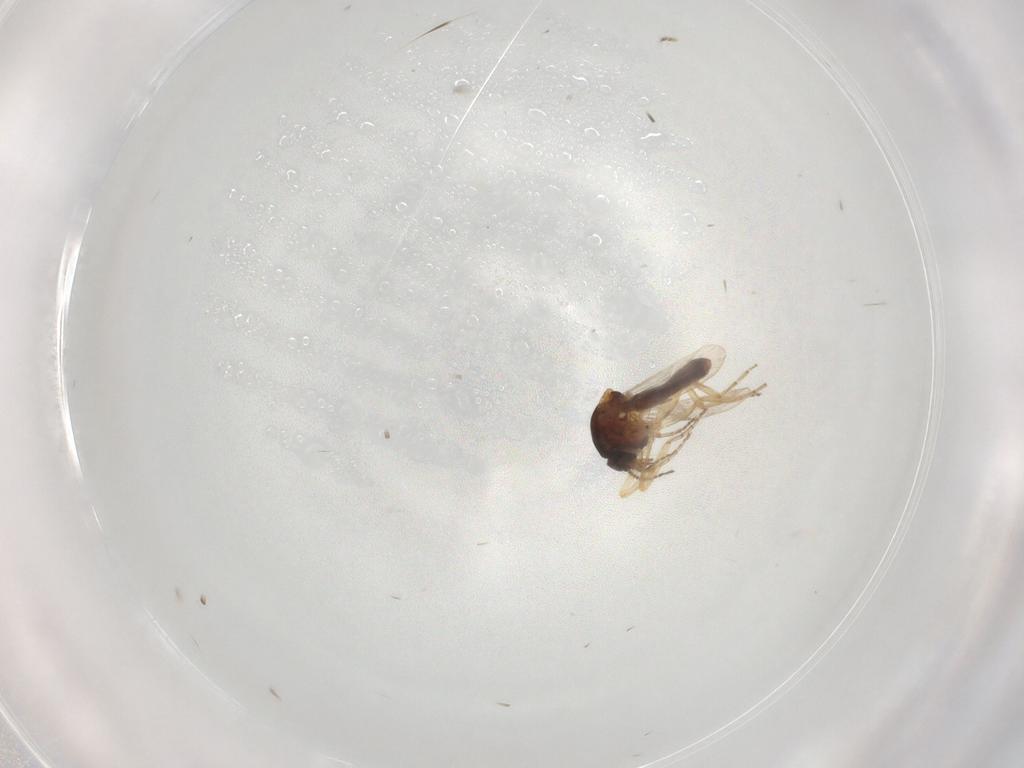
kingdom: Animalia
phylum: Arthropoda
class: Insecta
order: Diptera
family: Ceratopogonidae
